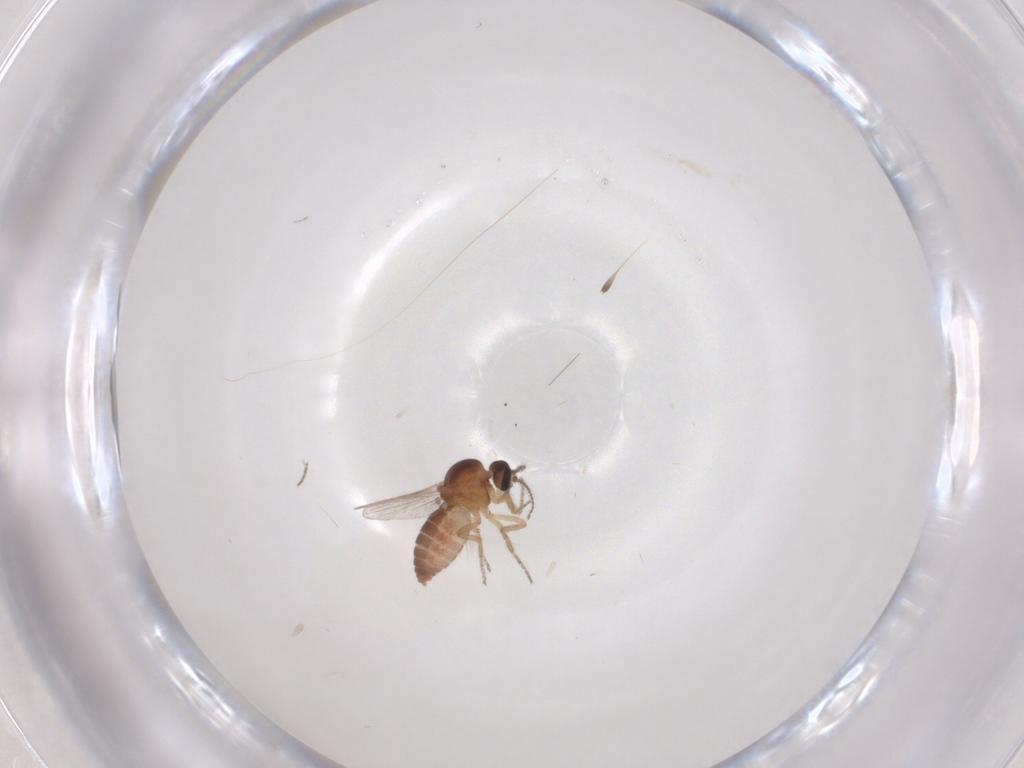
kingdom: Animalia
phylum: Arthropoda
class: Insecta
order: Diptera
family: Ceratopogonidae
